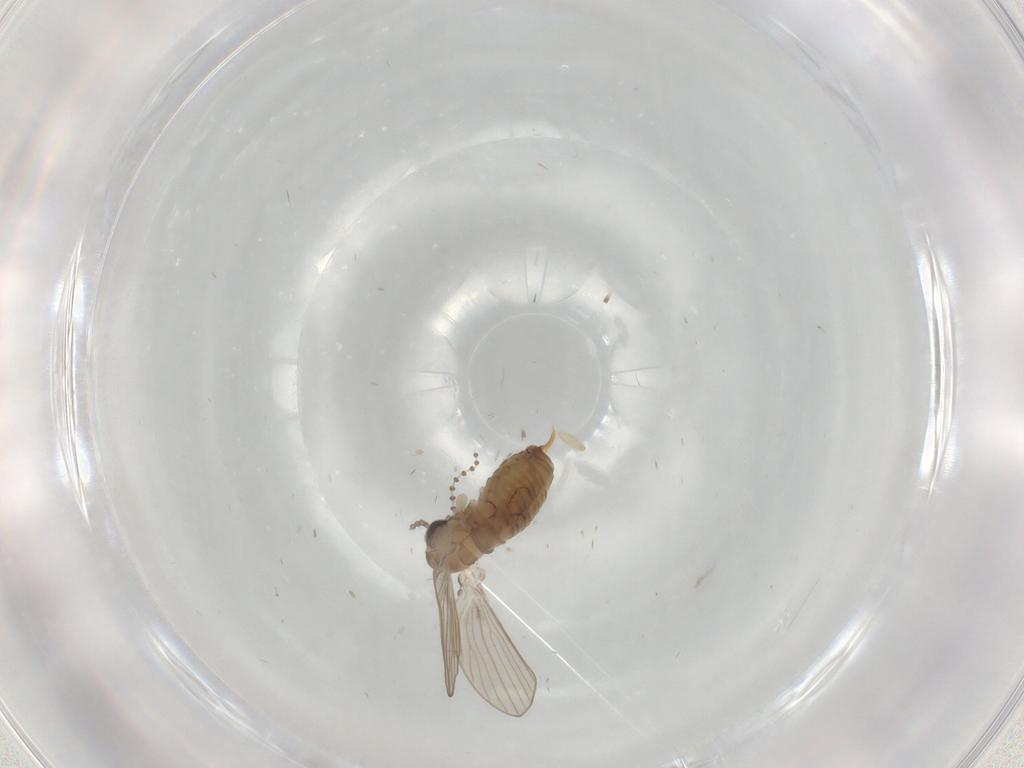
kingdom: Animalia
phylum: Arthropoda
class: Insecta
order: Diptera
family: Psychodidae
